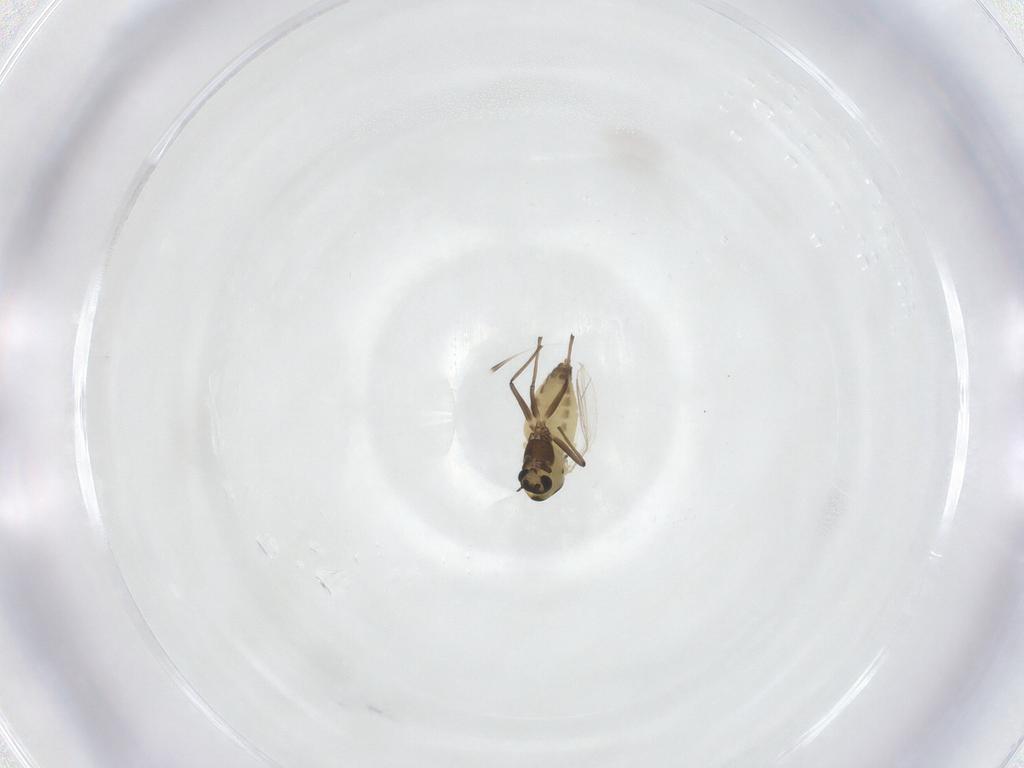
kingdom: Animalia
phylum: Arthropoda
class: Insecta
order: Diptera
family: Chironomidae
